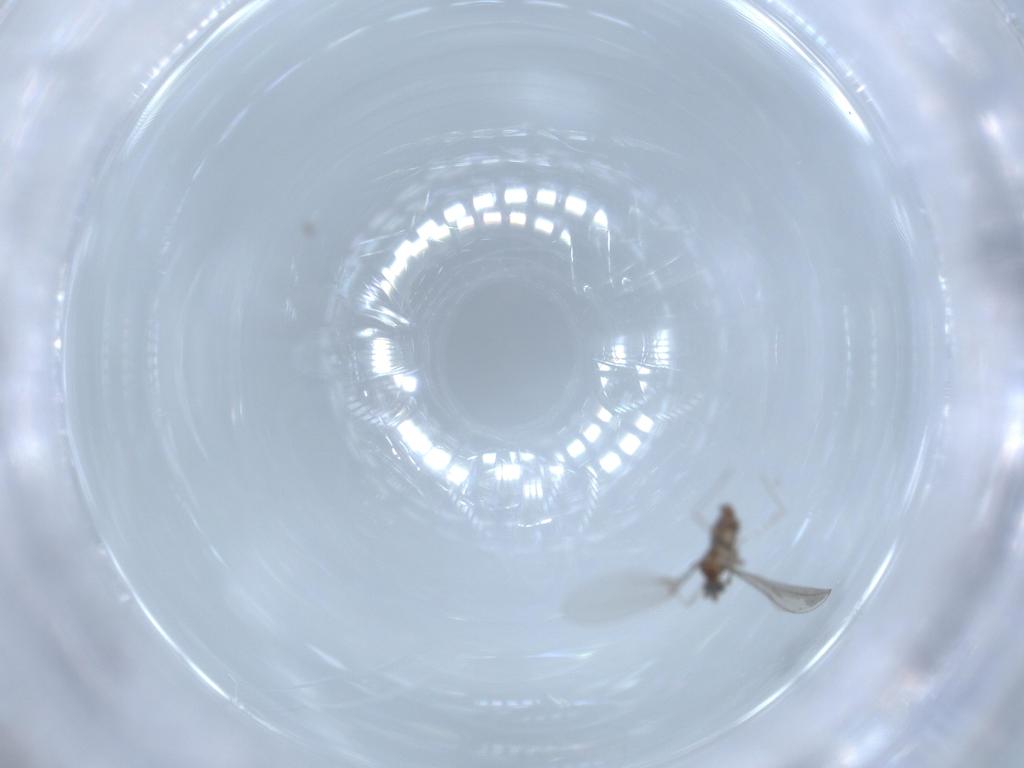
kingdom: Animalia
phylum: Arthropoda
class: Insecta
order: Diptera
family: Cecidomyiidae
